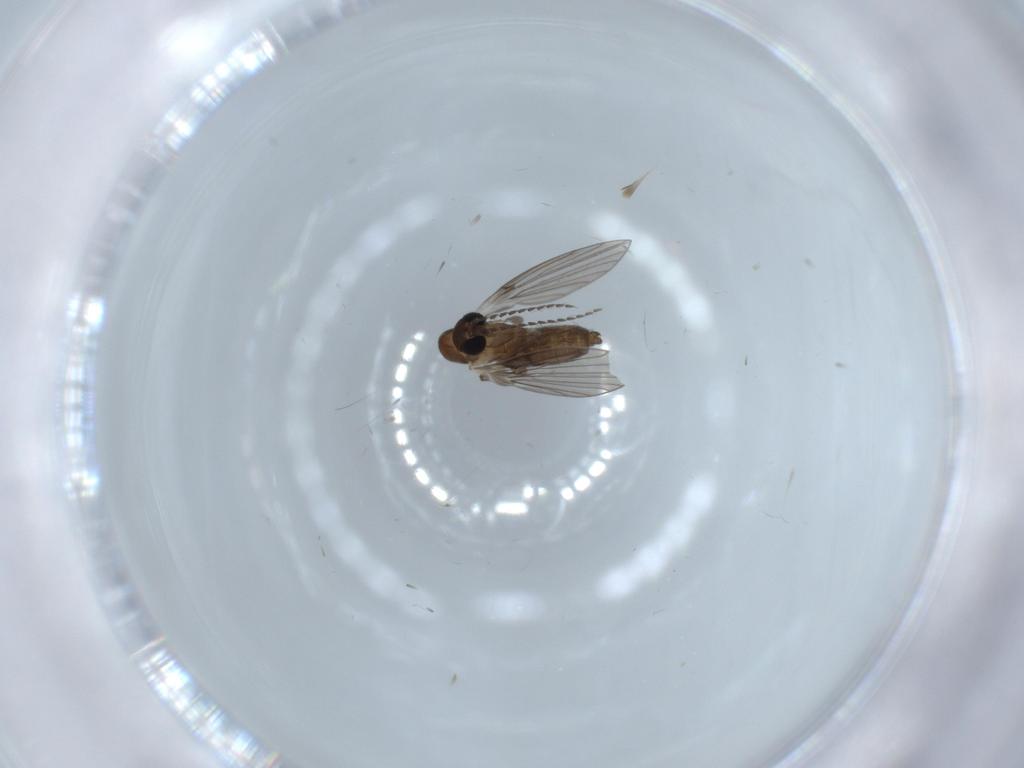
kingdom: Animalia
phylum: Arthropoda
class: Insecta
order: Diptera
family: Psychodidae
